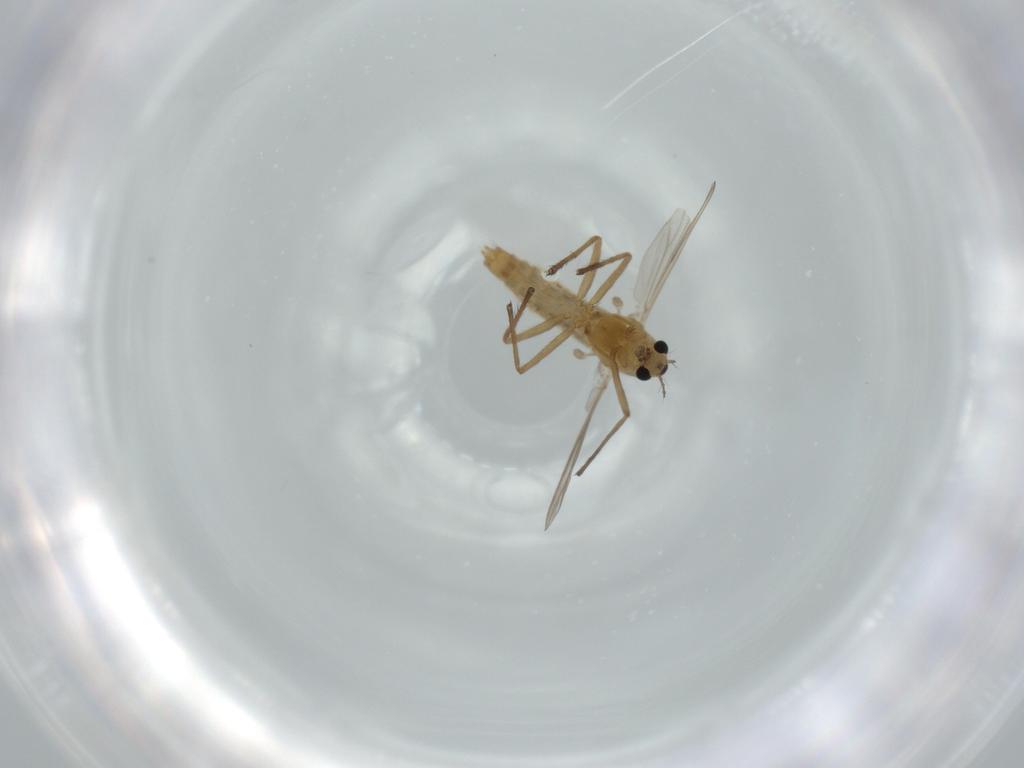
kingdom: Animalia
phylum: Arthropoda
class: Insecta
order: Diptera
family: Chironomidae
